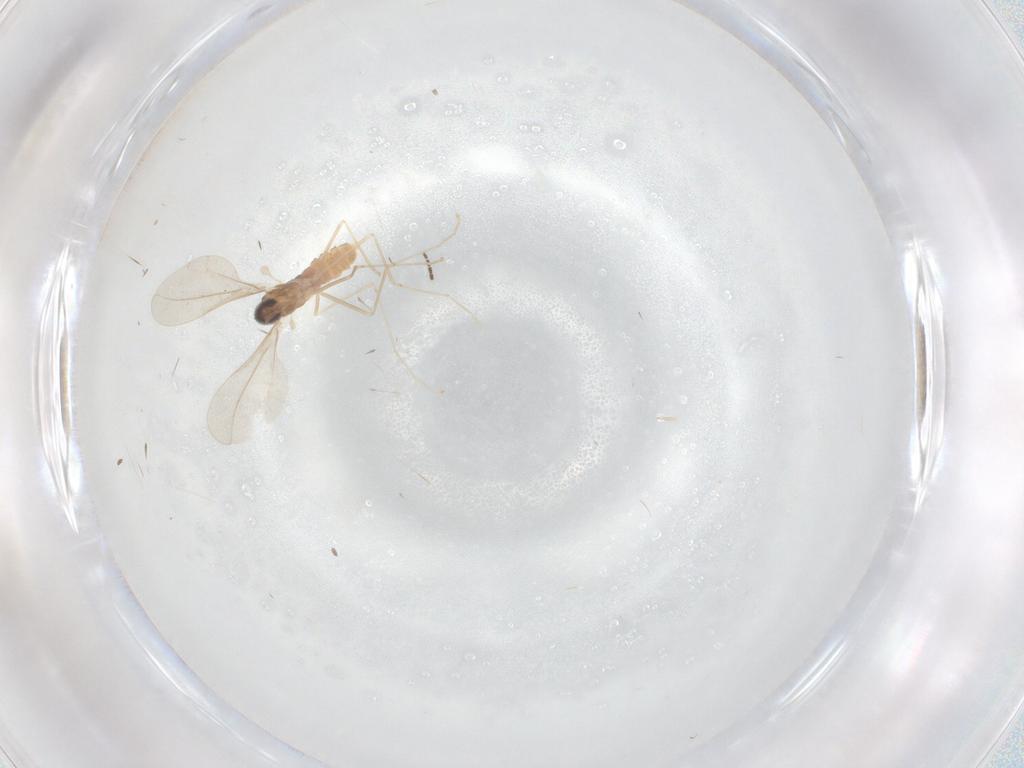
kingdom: Animalia
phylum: Arthropoda
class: Insecta
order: Diptera
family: Cecidomyiidae
